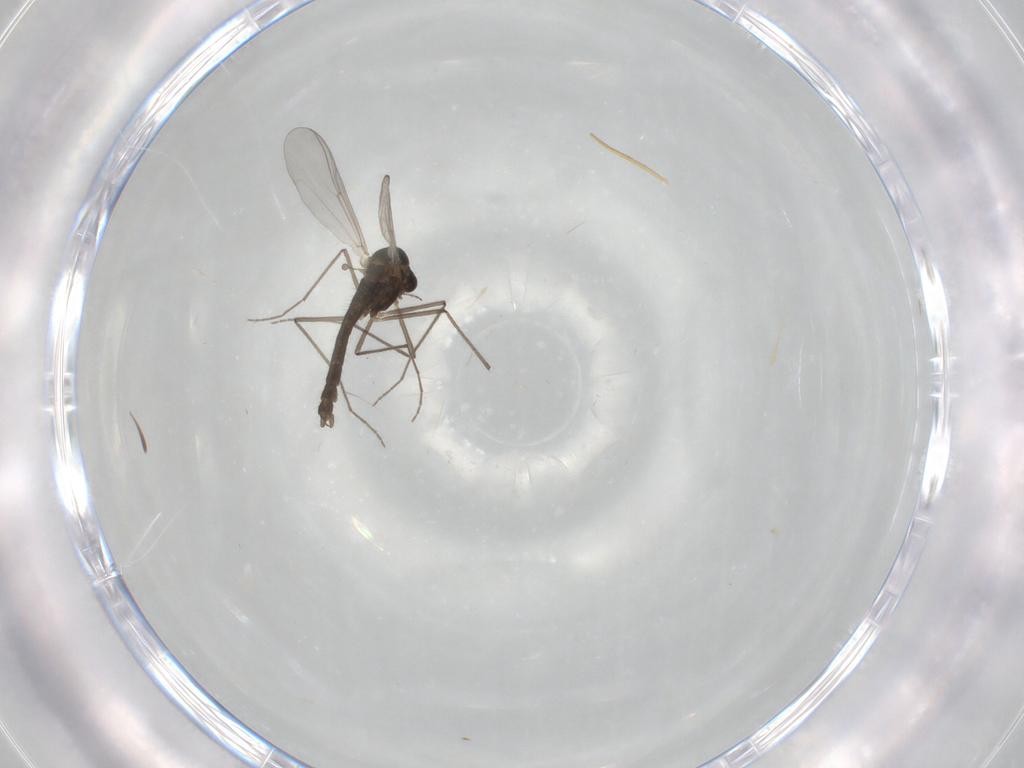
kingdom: Animalia
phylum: Arthropoda
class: Insecta
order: Diptera
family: Chironomidae
